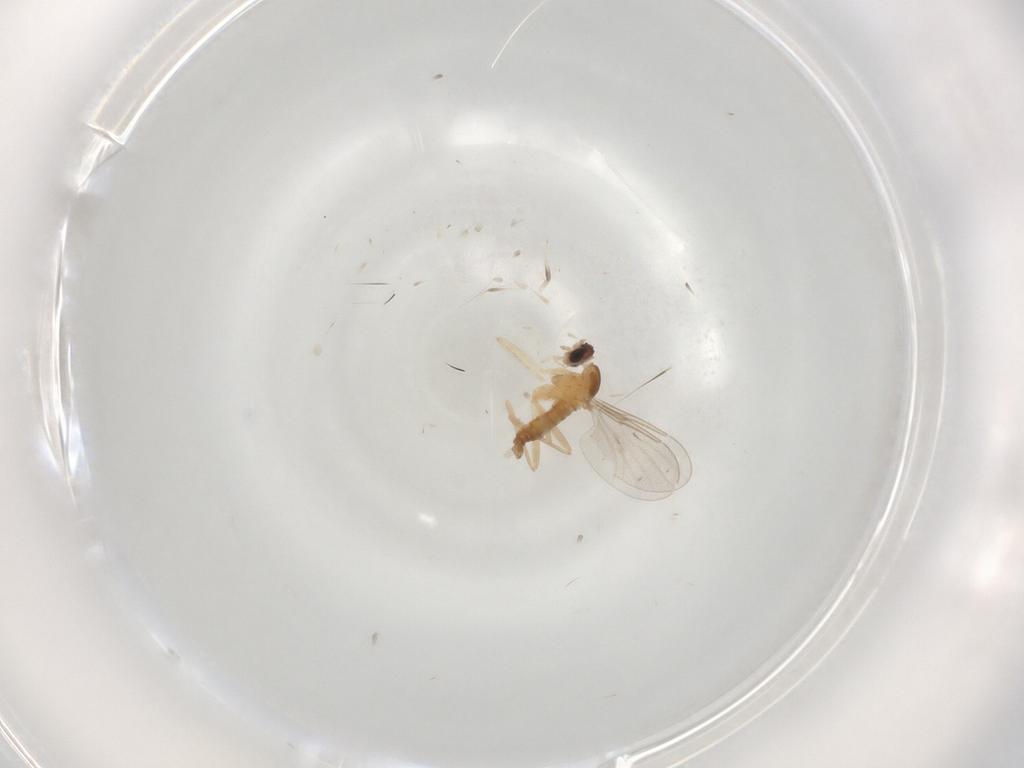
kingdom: Animalia
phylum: Arthropoda
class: Insecta
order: Diptera
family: Cecidomyiidae
